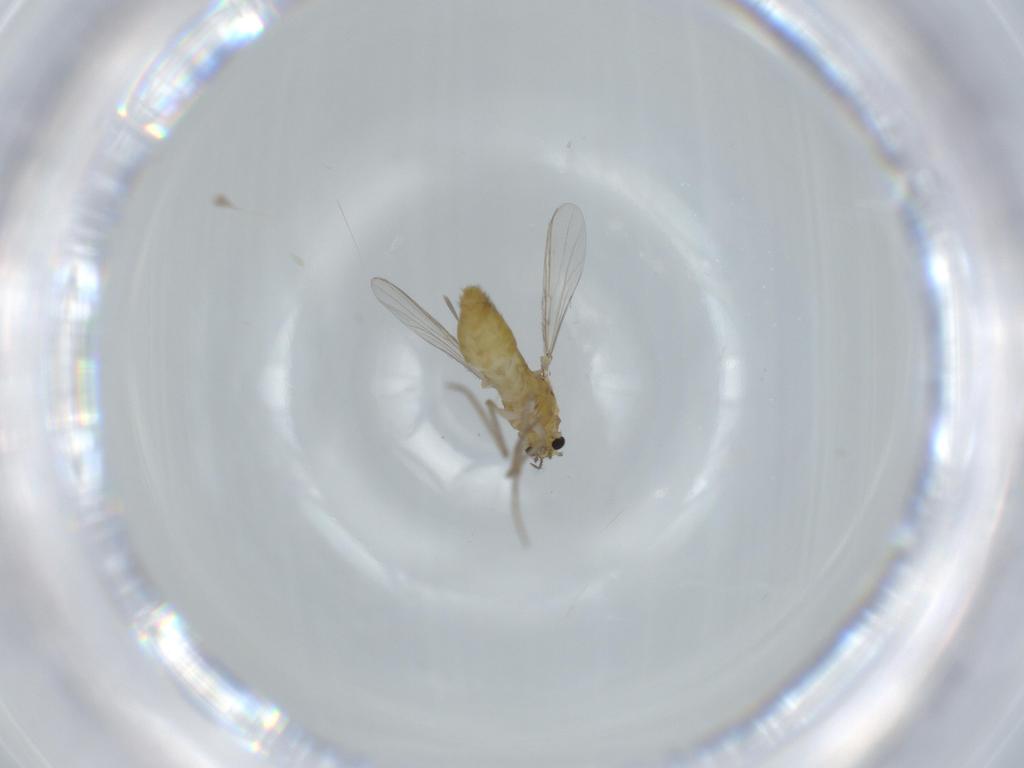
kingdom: Animalia
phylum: Arthropoda
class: Insecta
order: Diptera
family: Chironomidae
